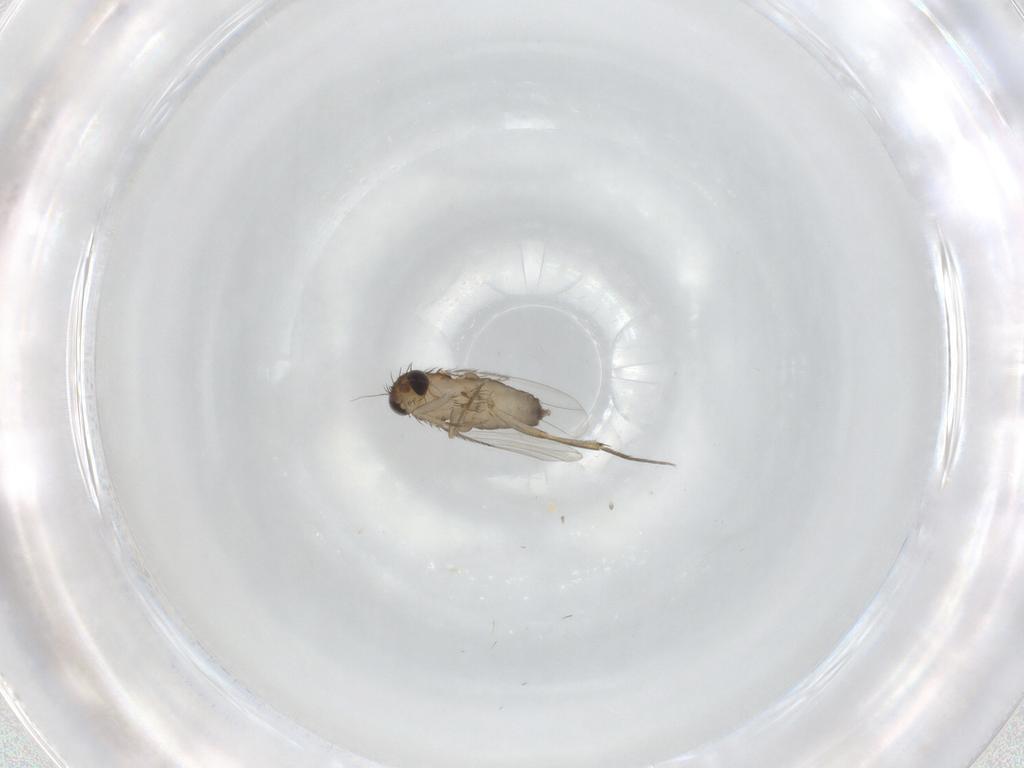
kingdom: Animalia
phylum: Arthropoda
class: Insecta
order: Diptera
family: Phoridae
